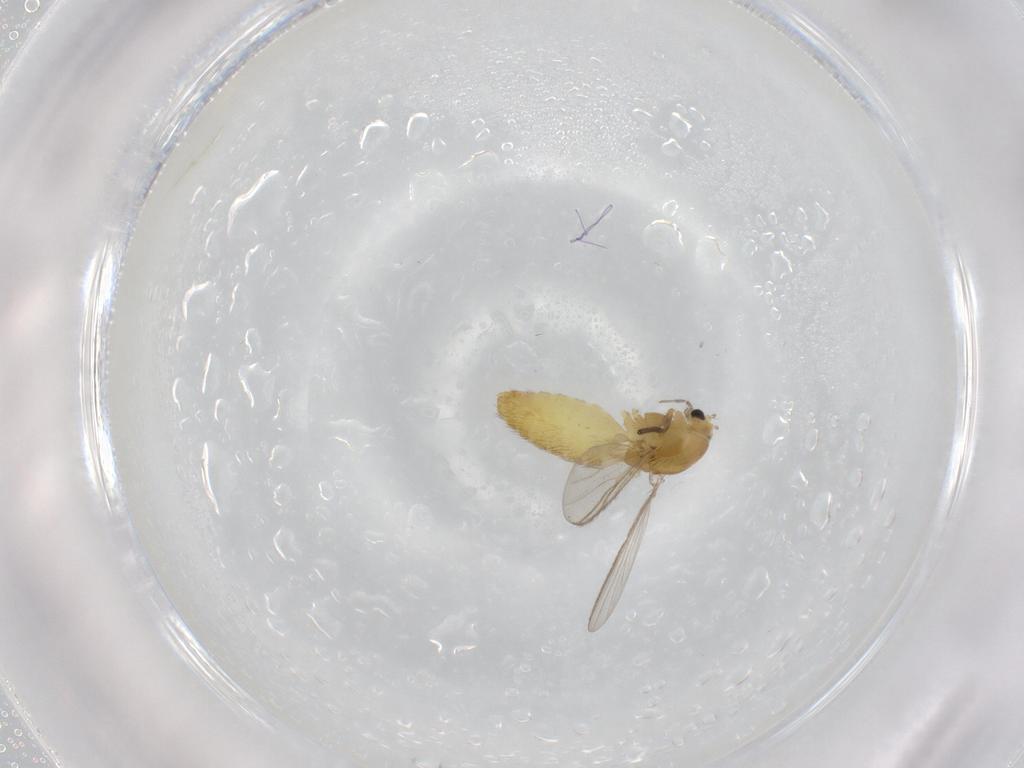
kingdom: Animalia
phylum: Arthropoda
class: Insecta
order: Diptera
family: Chironomidae
